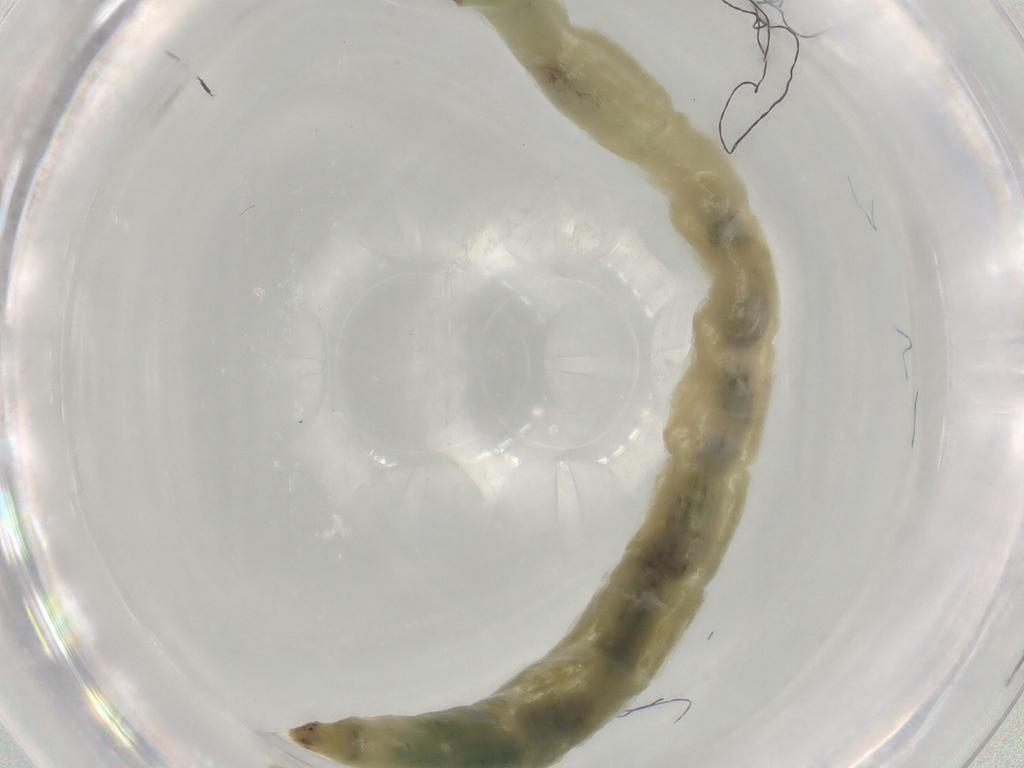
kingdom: Animalia
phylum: Arthropoda
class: Insecta
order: Diptera
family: Chironomidae
